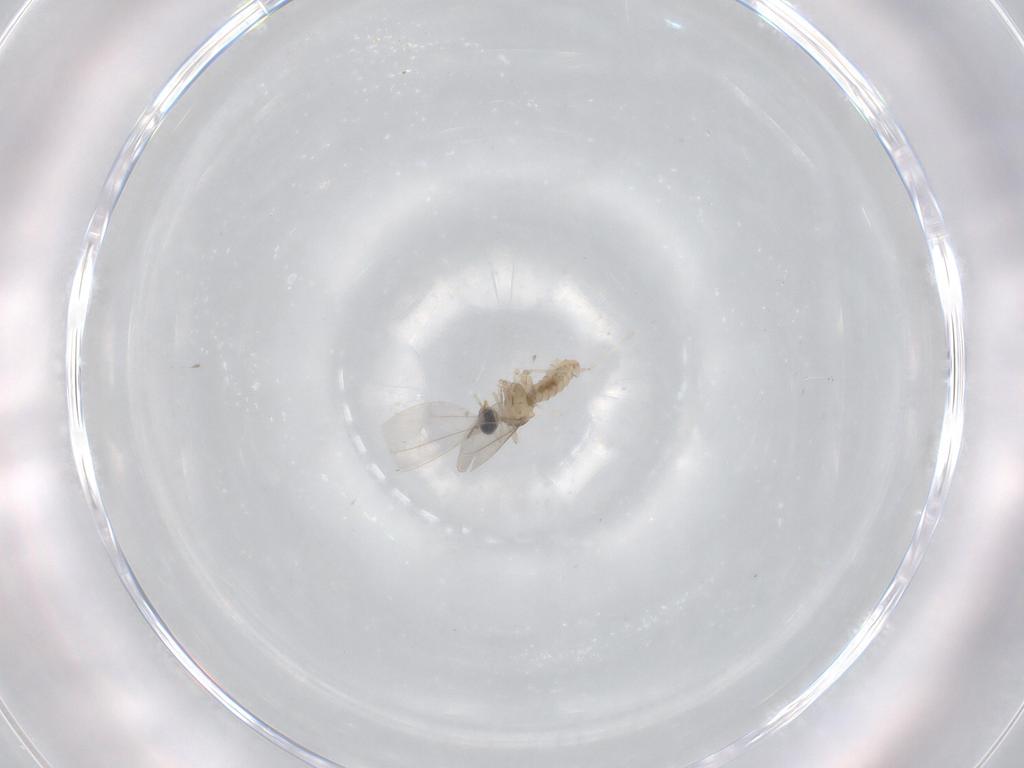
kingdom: Animalia
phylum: Arthropoda
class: Insecta
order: Diptera
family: Cecidomyiidae
